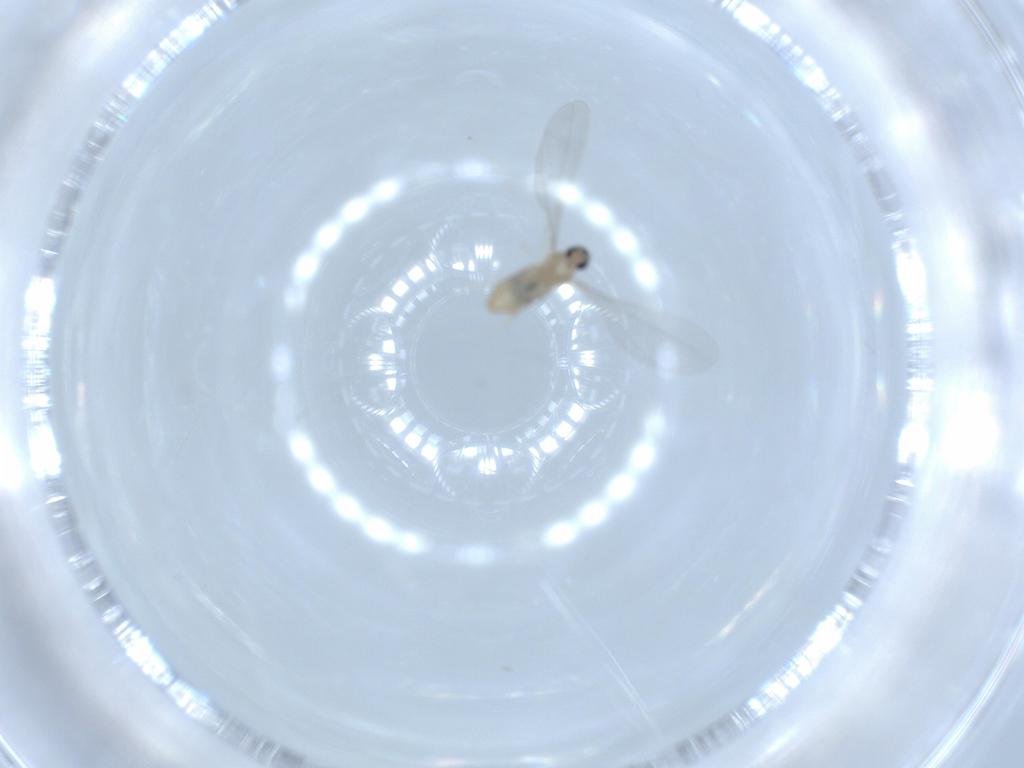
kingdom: Animalia
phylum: Arthropoda
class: Insecta
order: Diptera
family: Cecidomyiidae
